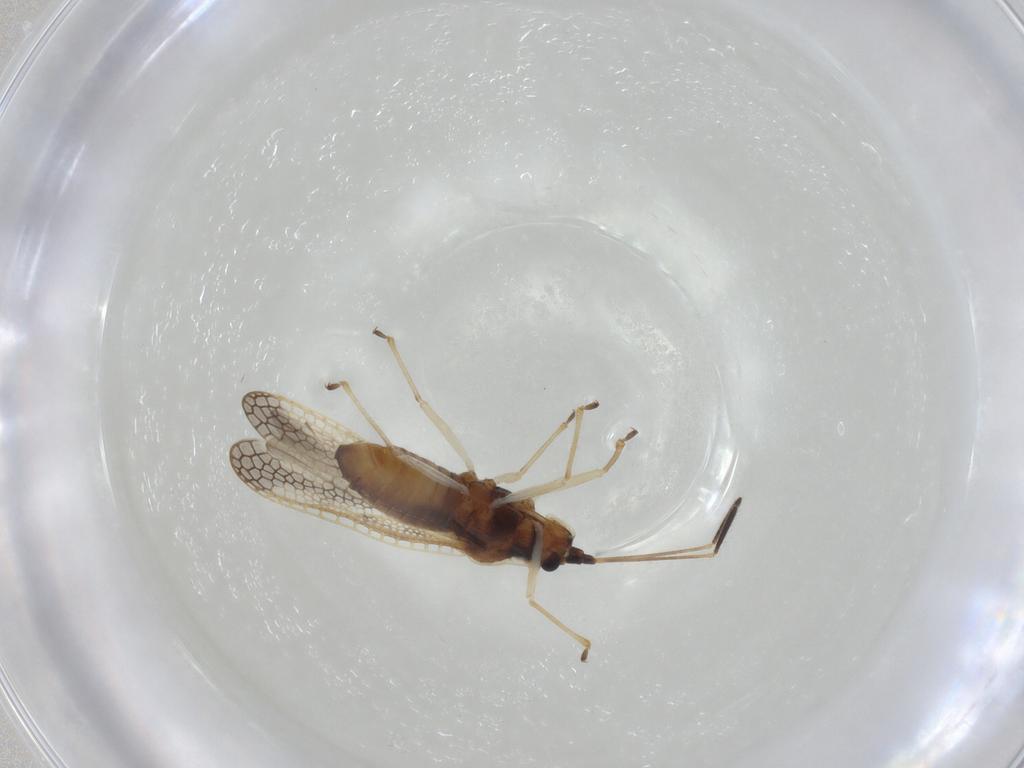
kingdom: Animalia
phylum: Arthropoda
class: Insecta
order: Hemiptera
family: Tingidae
